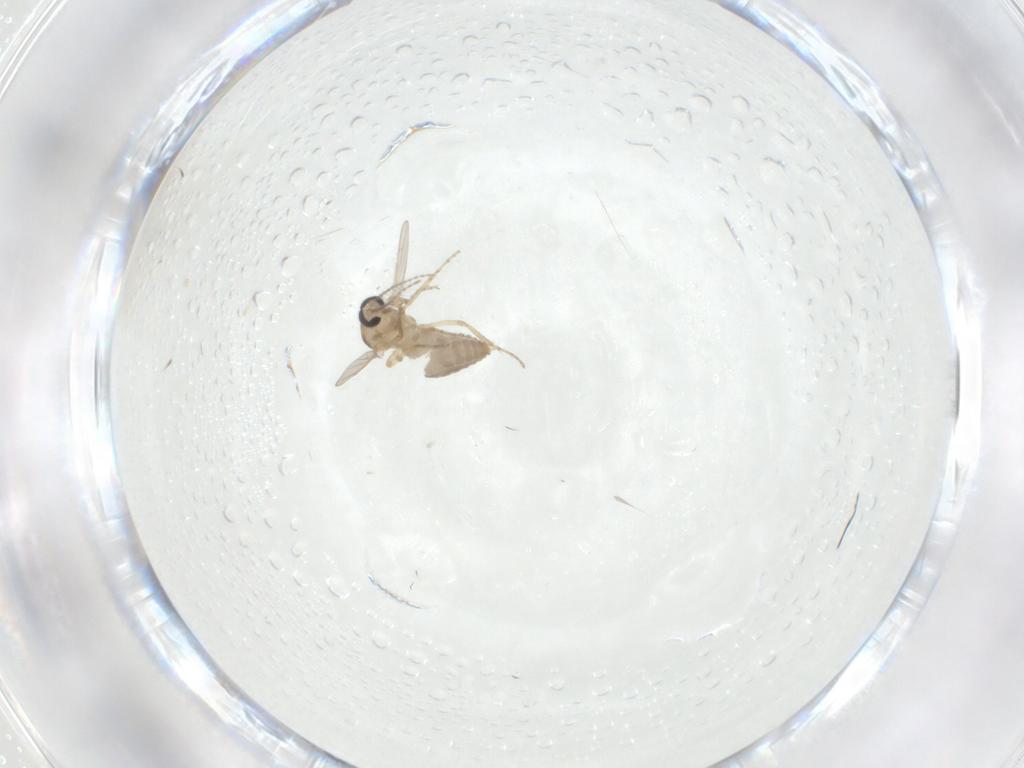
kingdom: Animalia
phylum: Arthropoda
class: Insecta
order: Diptera
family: Ceratopogonidae
